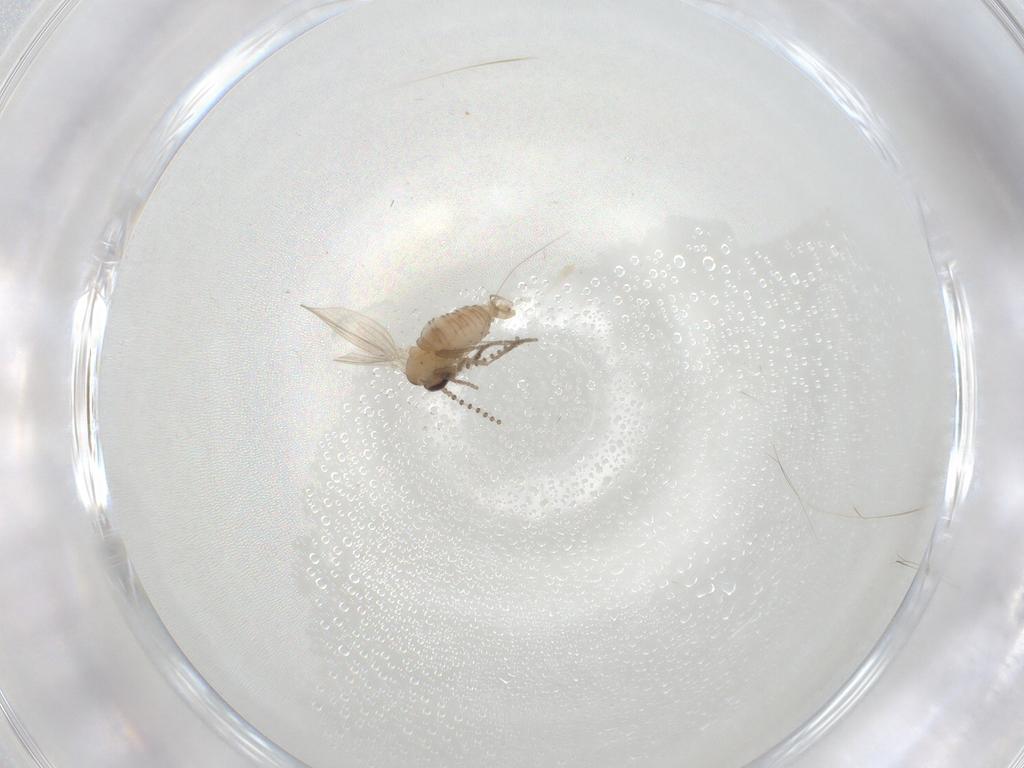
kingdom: Animalia
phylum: Arthropoda
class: Insecta
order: Diptera
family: Psychodidae
